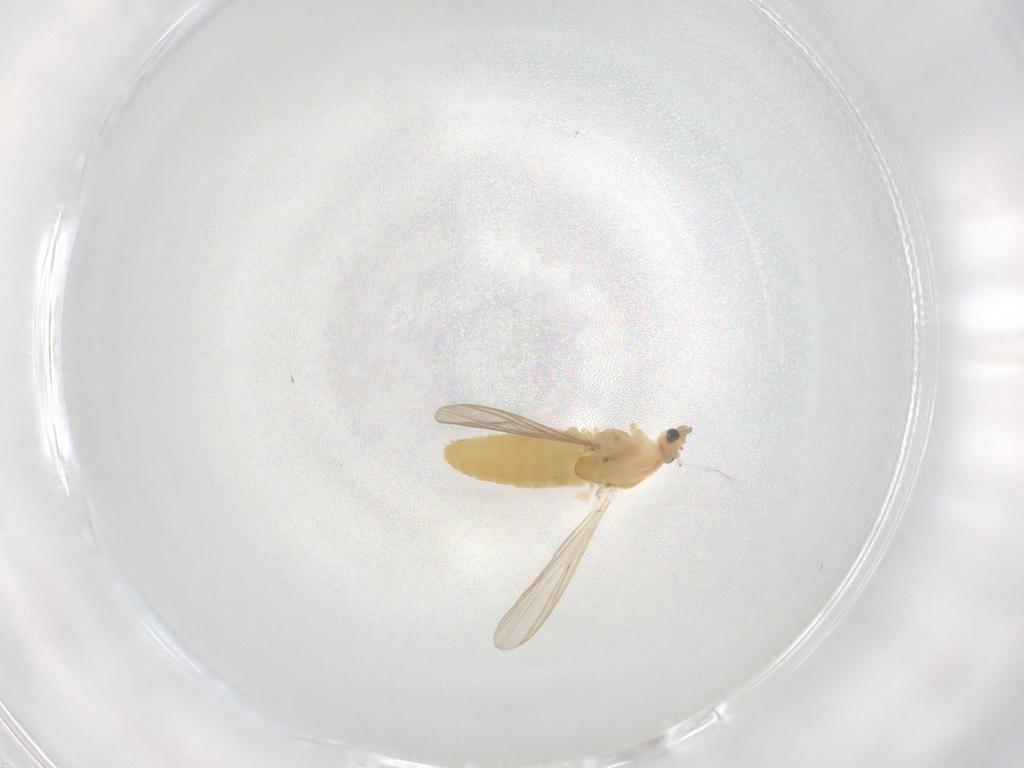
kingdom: Animalia
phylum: Arthropoda
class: Insecta
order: Diptera
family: Chironomidae
